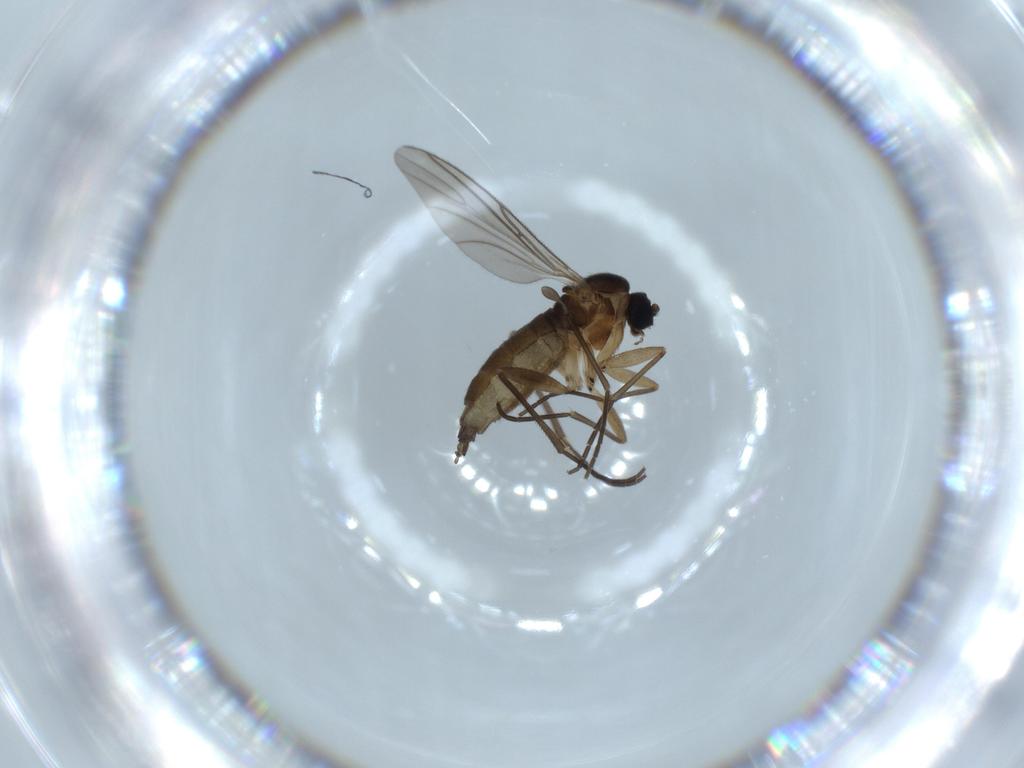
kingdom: Animalia
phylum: Arthropoda
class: Insecta
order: Diptera
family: Sciaridae
